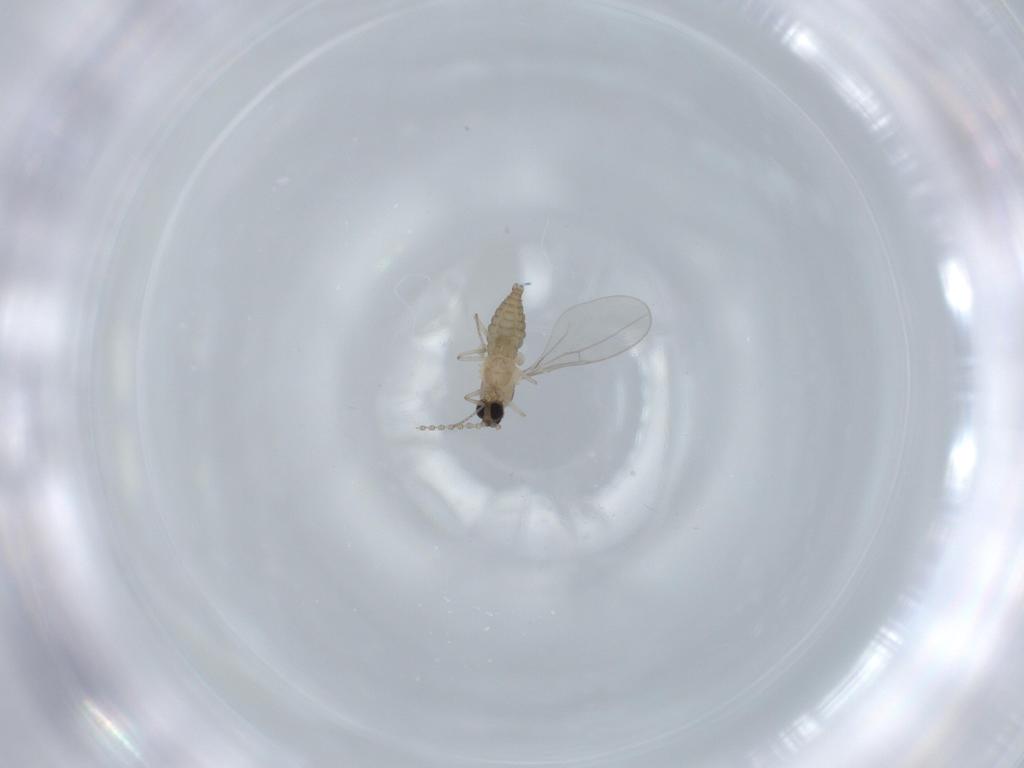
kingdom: Animalia
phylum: Arthropoda
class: Insecta
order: Diptera
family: Cecidomyiidae
